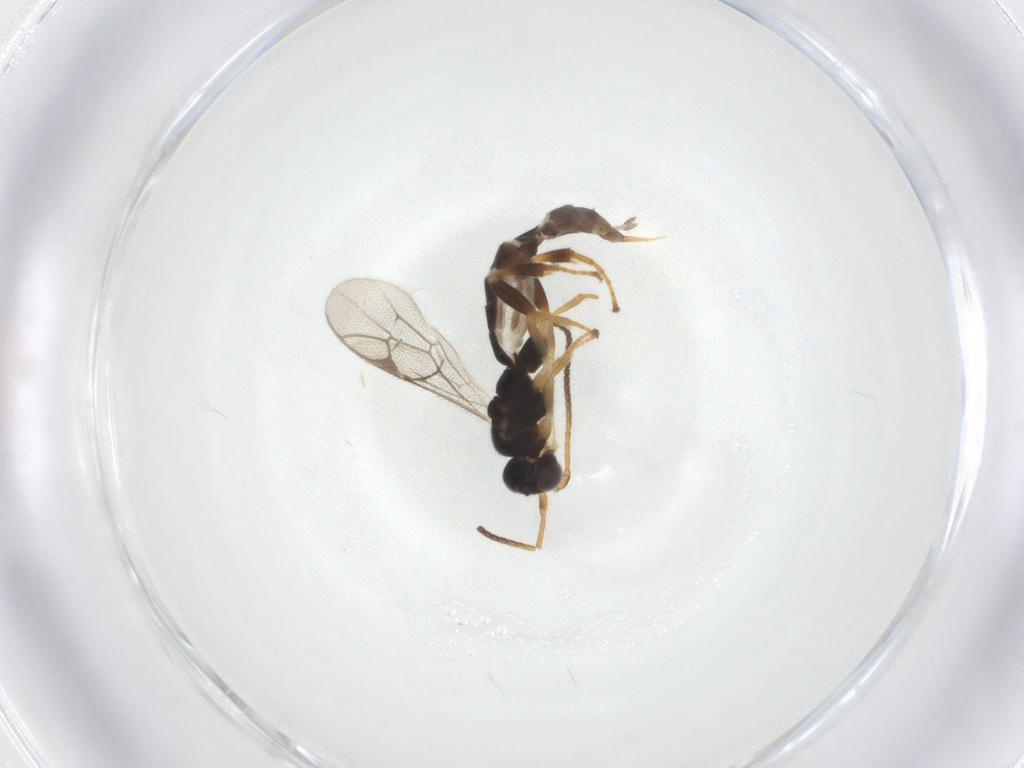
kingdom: Animalia
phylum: Arthropoda
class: Insecta
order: Hymenoptera
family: Ichneumonidae
